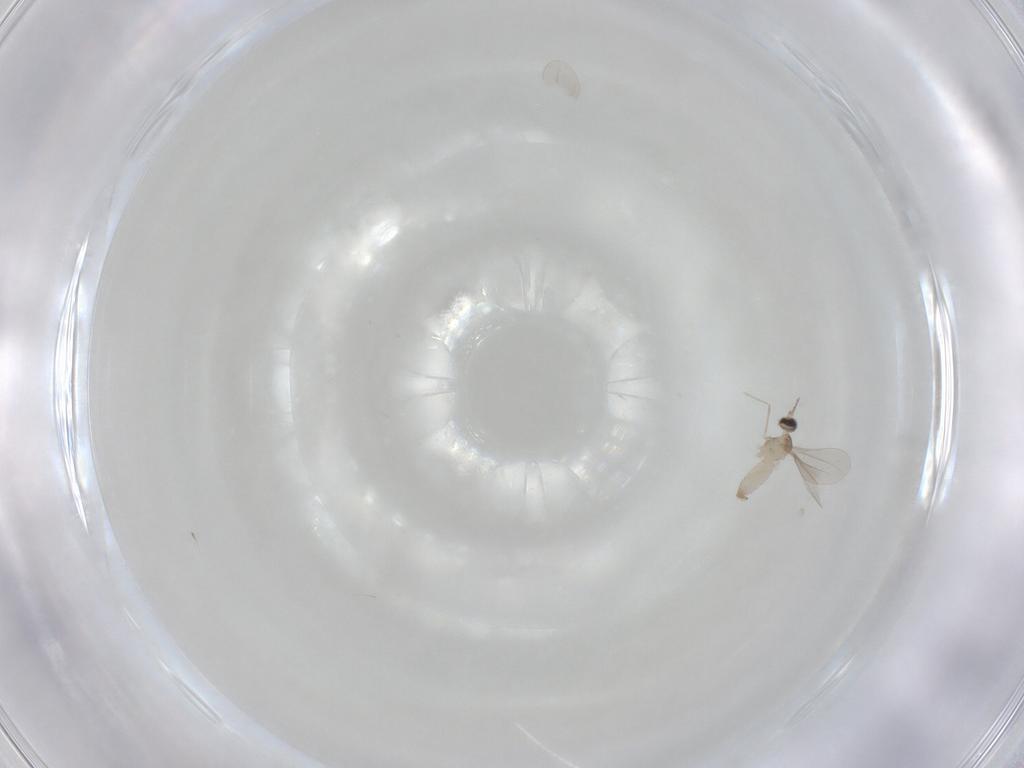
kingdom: Animalia
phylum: Arthropoda
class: Insecta
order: Diptera
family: Cecidomyiidae
